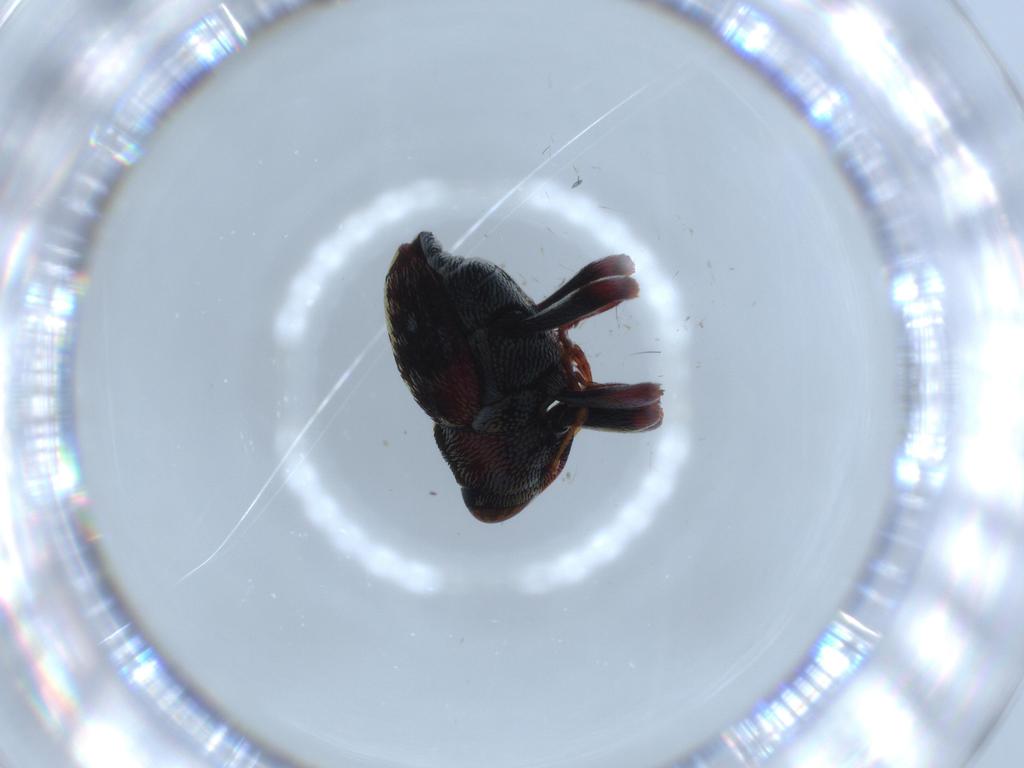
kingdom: Animalia
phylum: Arthropoda
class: Insecta
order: Coleoptera
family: Curculionidae
